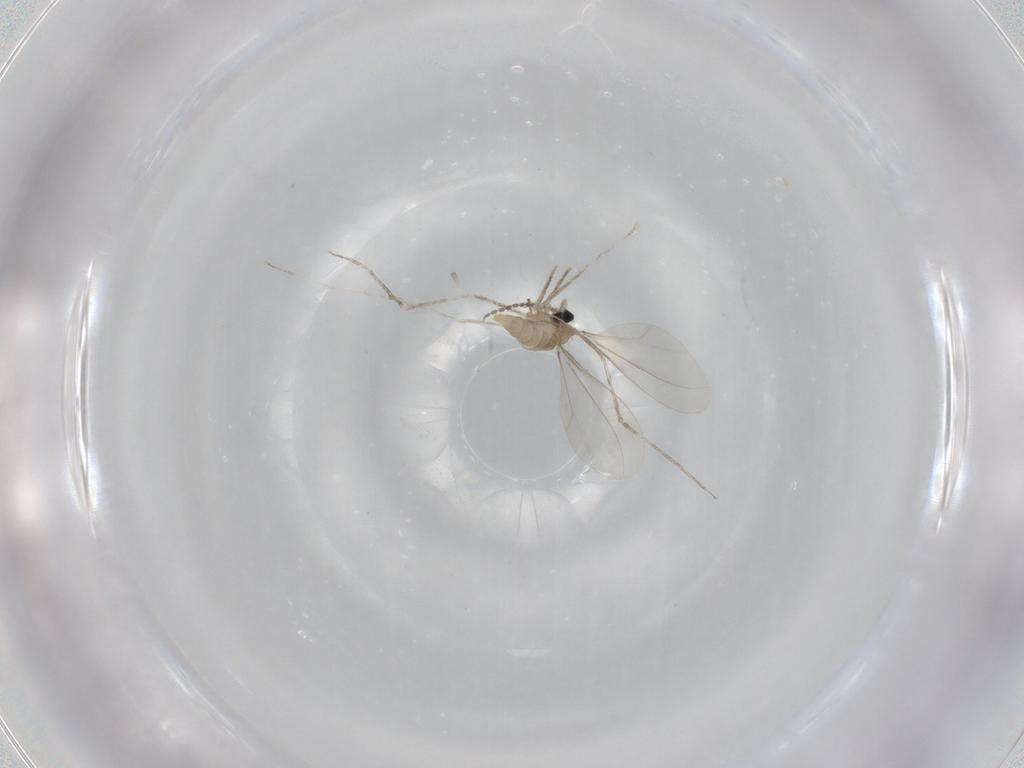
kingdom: Animalia
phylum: Arthropoda
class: Insecta
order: Diptera
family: Cecidomyiidae
